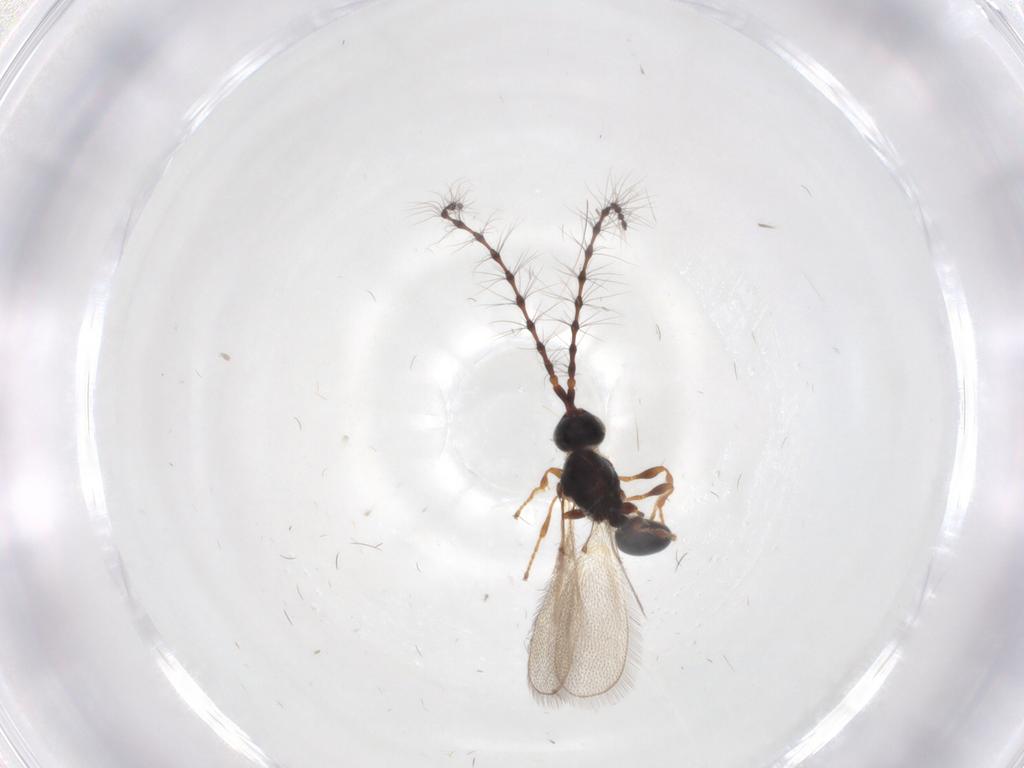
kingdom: Animalia
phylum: Arthropoda
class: Insecta
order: Hymenoptera
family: Diapriidae
